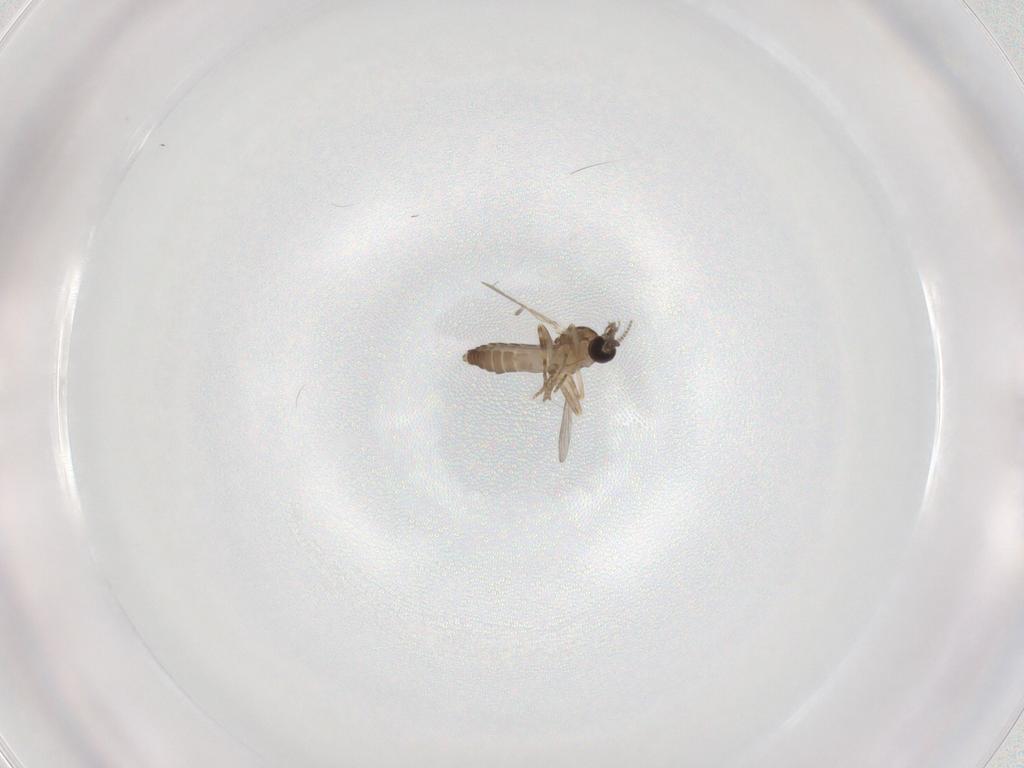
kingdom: Animalia
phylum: Arthropoda
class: Insecta
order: Diptera
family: Ceratopogonidae
